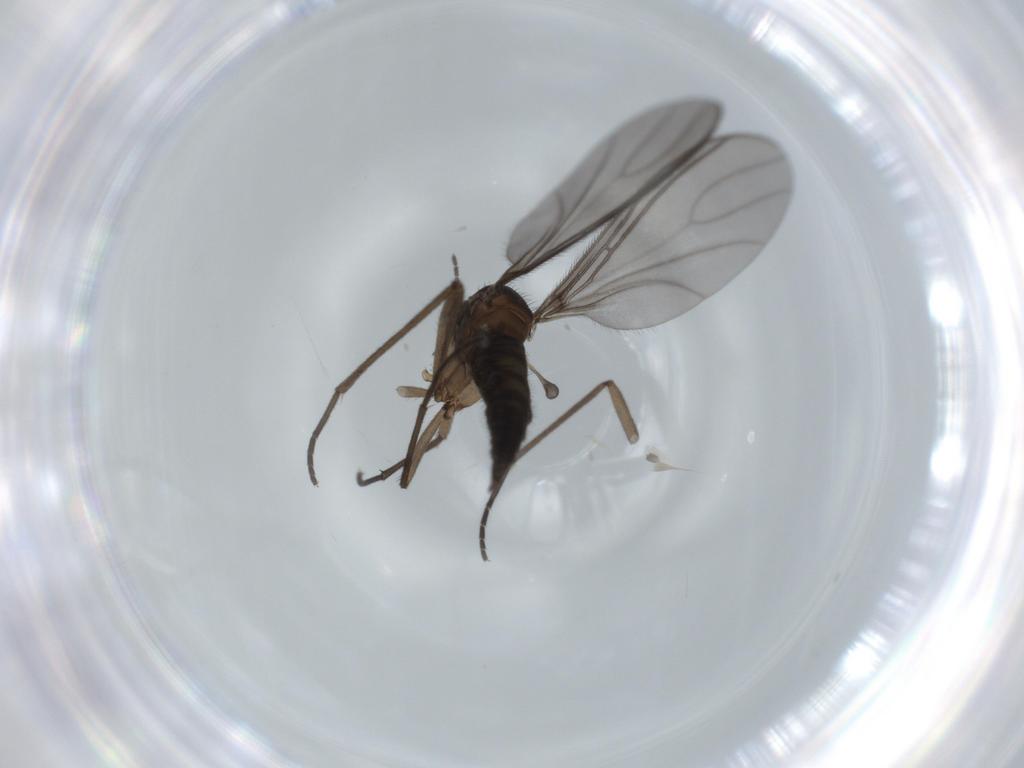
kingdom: Animalia
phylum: Arthropoda
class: Insecta
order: Diptera
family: Sciaridae
